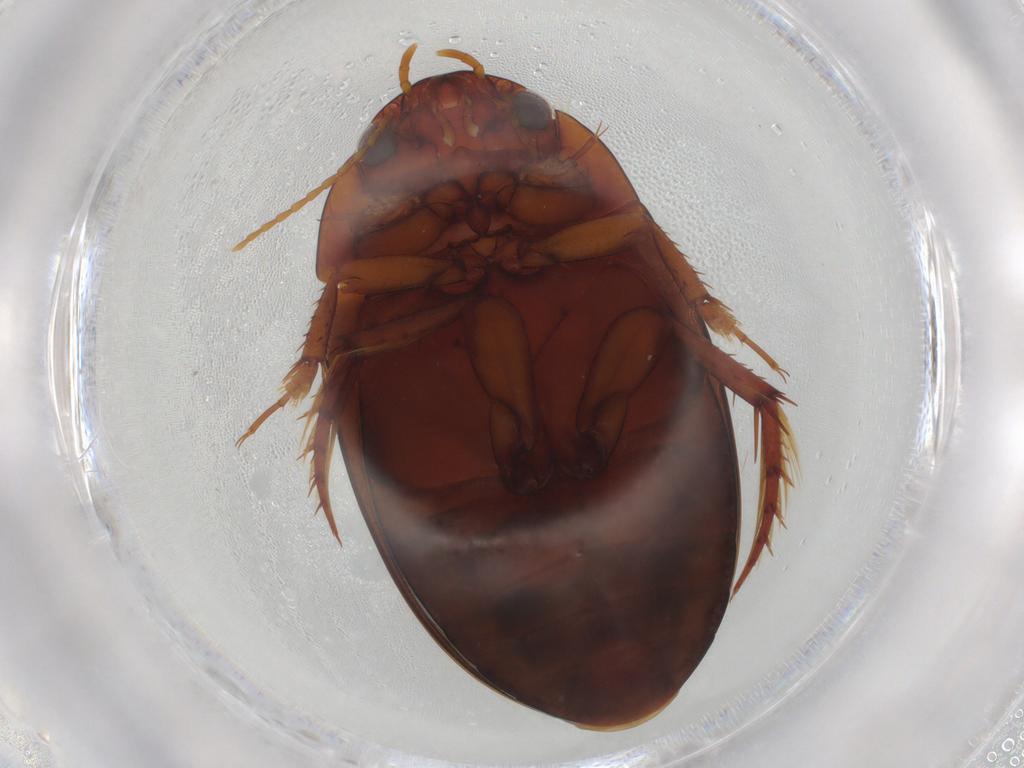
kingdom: Animalia
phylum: Arthropoda
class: Insecta
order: Coleoptera
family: Dytiscidae
